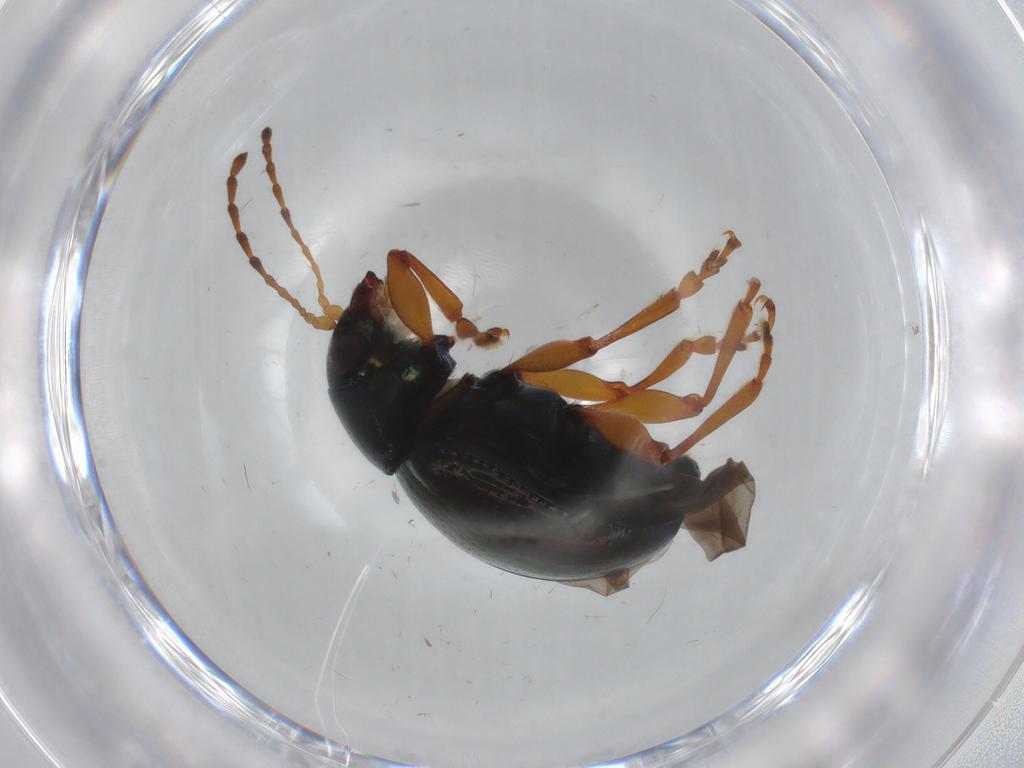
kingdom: Animalia
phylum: Arthropoda
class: Insecta
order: Coleoptera
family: Chrysomelidae
